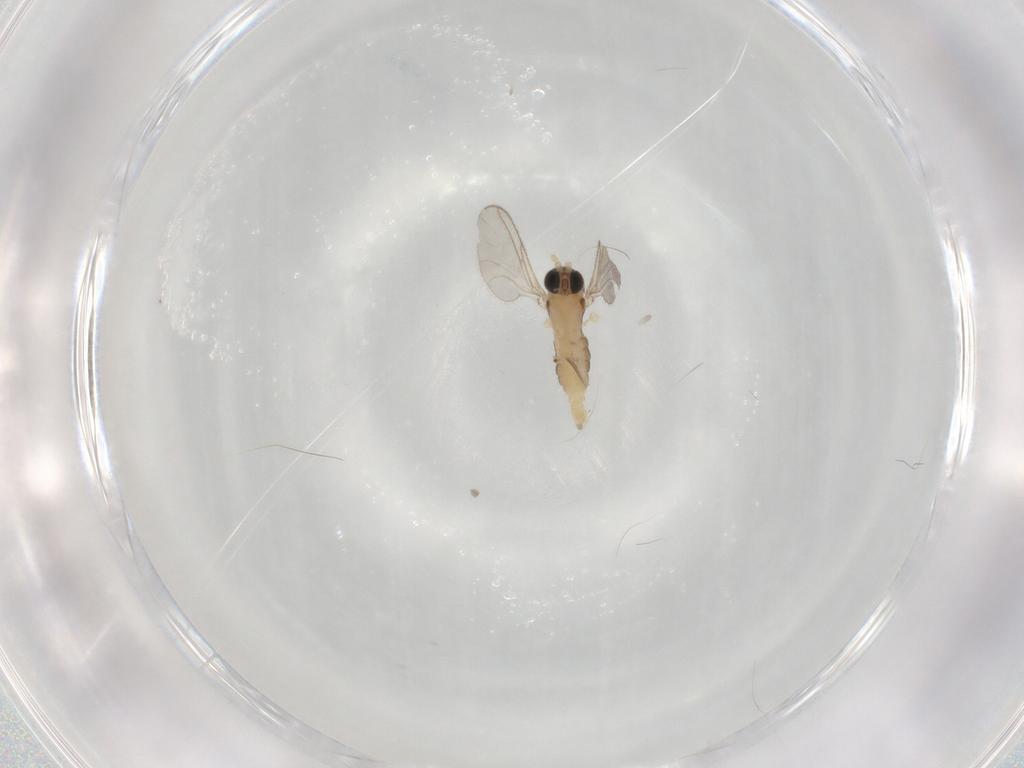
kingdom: Animalia
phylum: Arthropoda
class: Insecta
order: Diptera
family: Sciaridae
